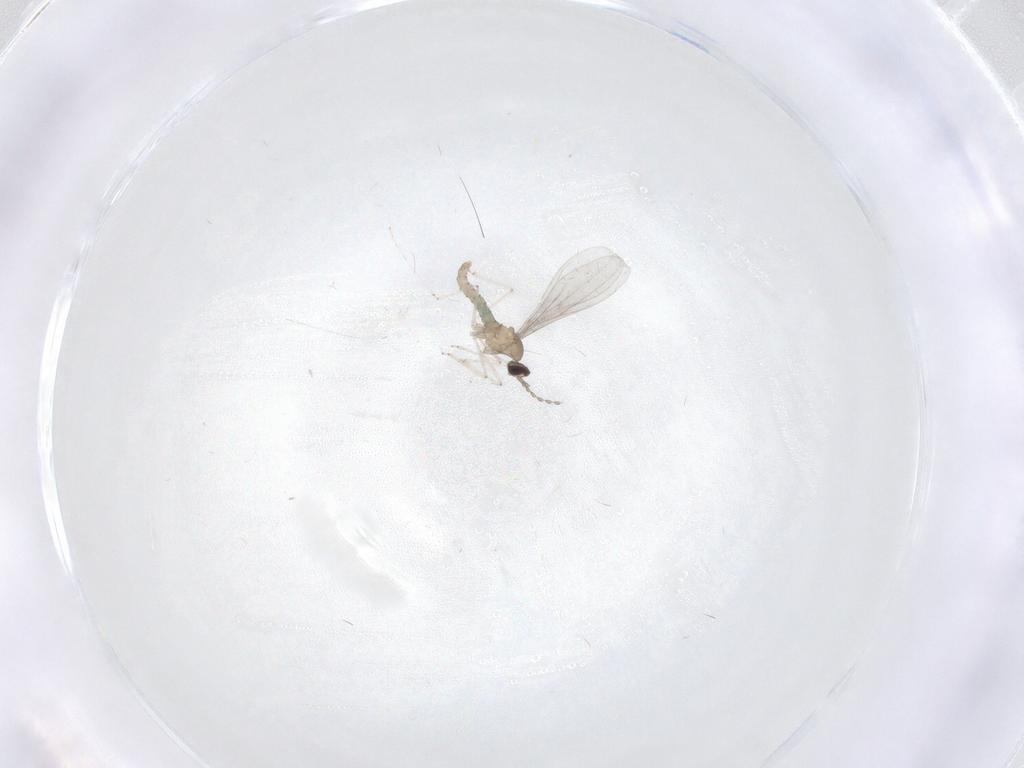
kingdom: Animalia
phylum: Arthropoda
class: Insecta
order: Diptera
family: Cecidomyiidae
